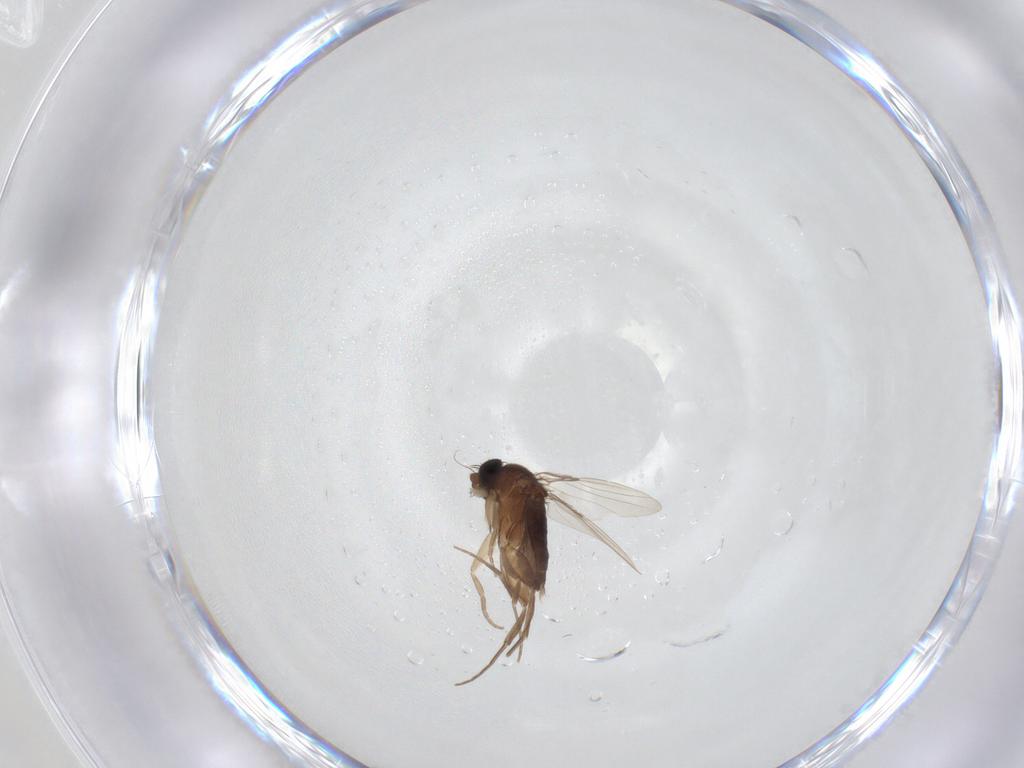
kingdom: Animalia
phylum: Arthropoda
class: Insecta
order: Diptera
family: Phoridae
